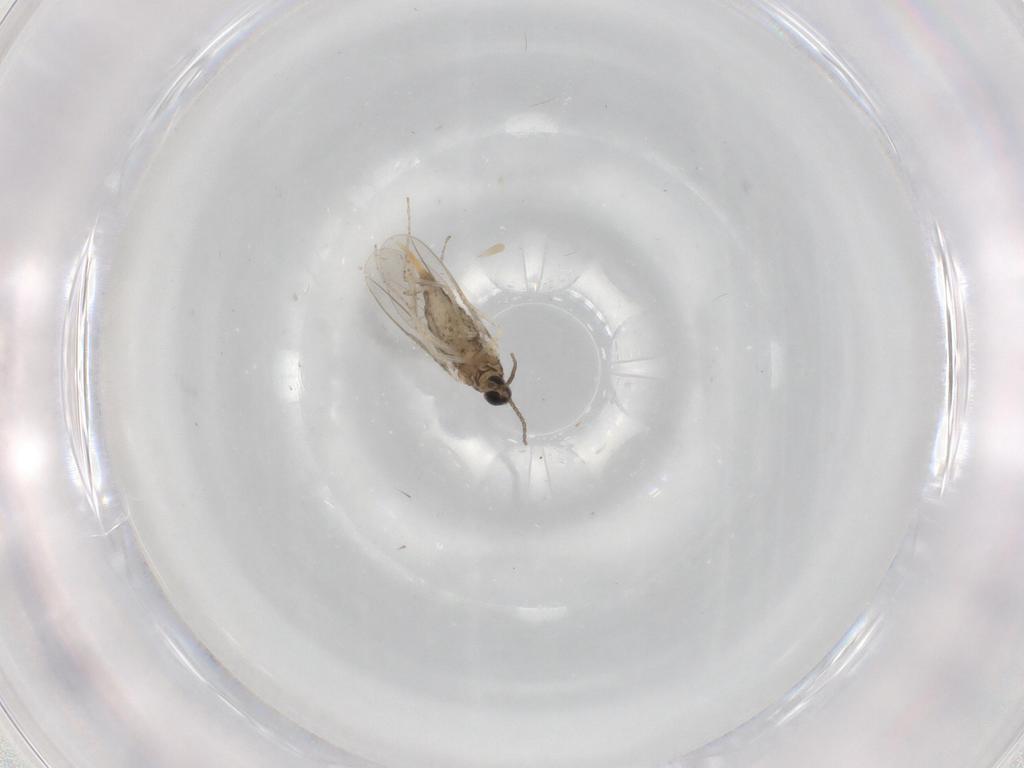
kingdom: Animalia
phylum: Arthropoda
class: Insecta
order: Diptera
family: Cecidomyiidae
